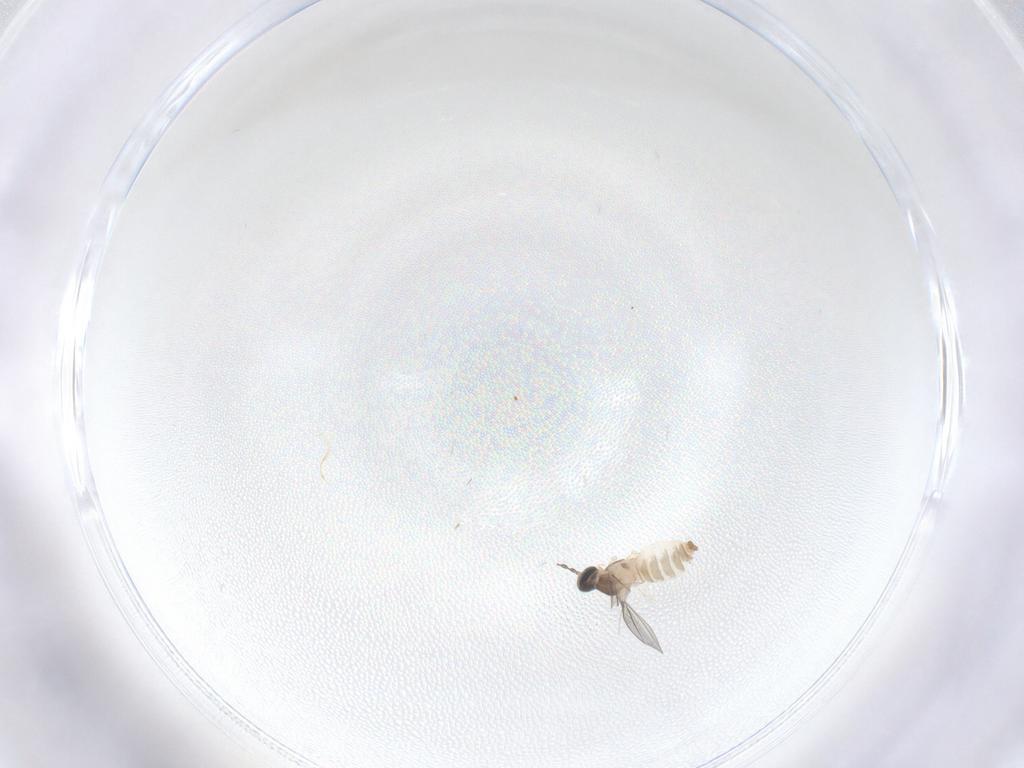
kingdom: Animalia
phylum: Arthropoda
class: Insecta
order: Diptera
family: Cecidomyiidae
